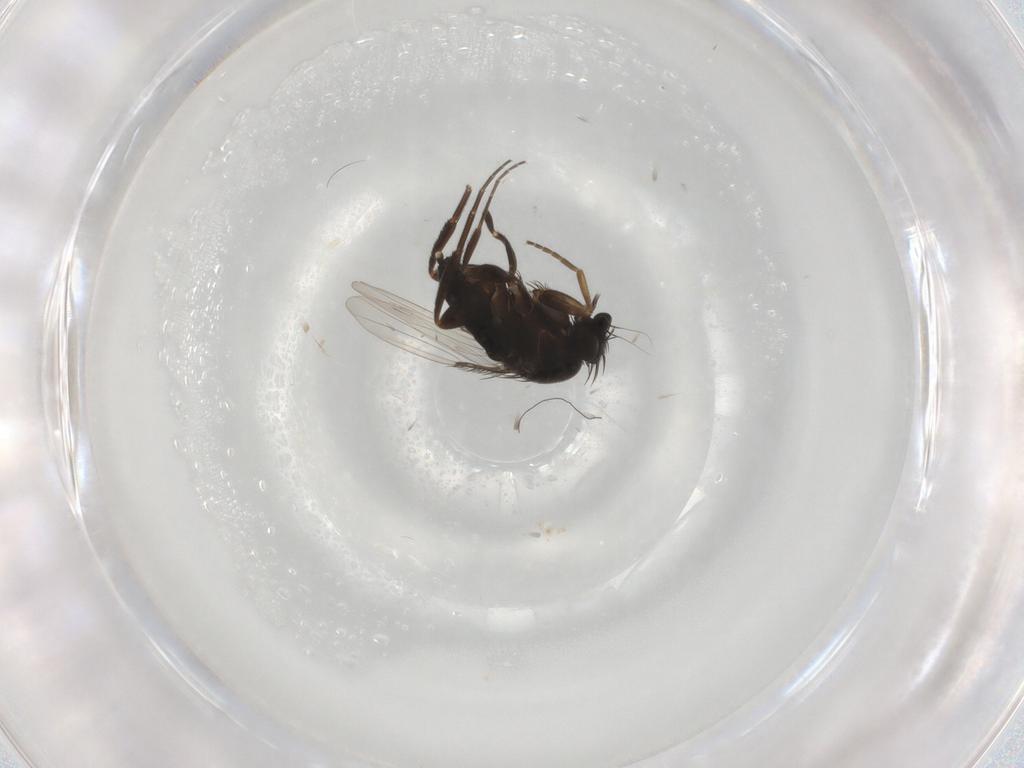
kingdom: Animalia
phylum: Arthropoda
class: Insecta
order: Diptera
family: Phoridae
